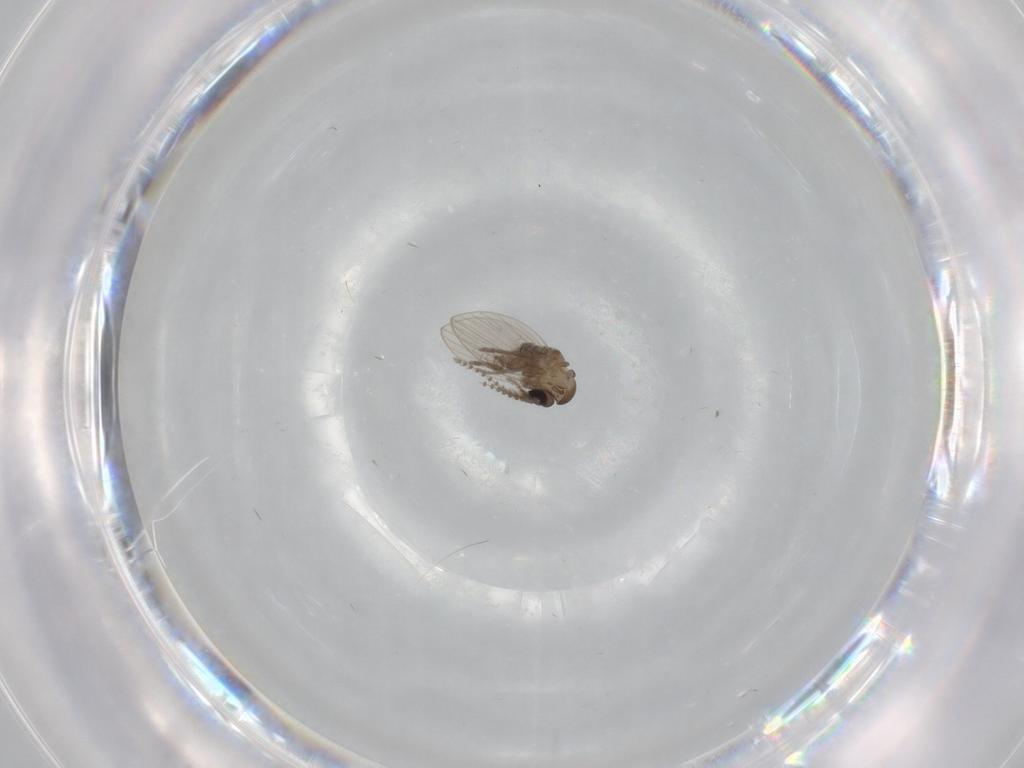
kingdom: Animalia
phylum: Arthropoda
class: Insecta
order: Diptera
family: Psychodidae
